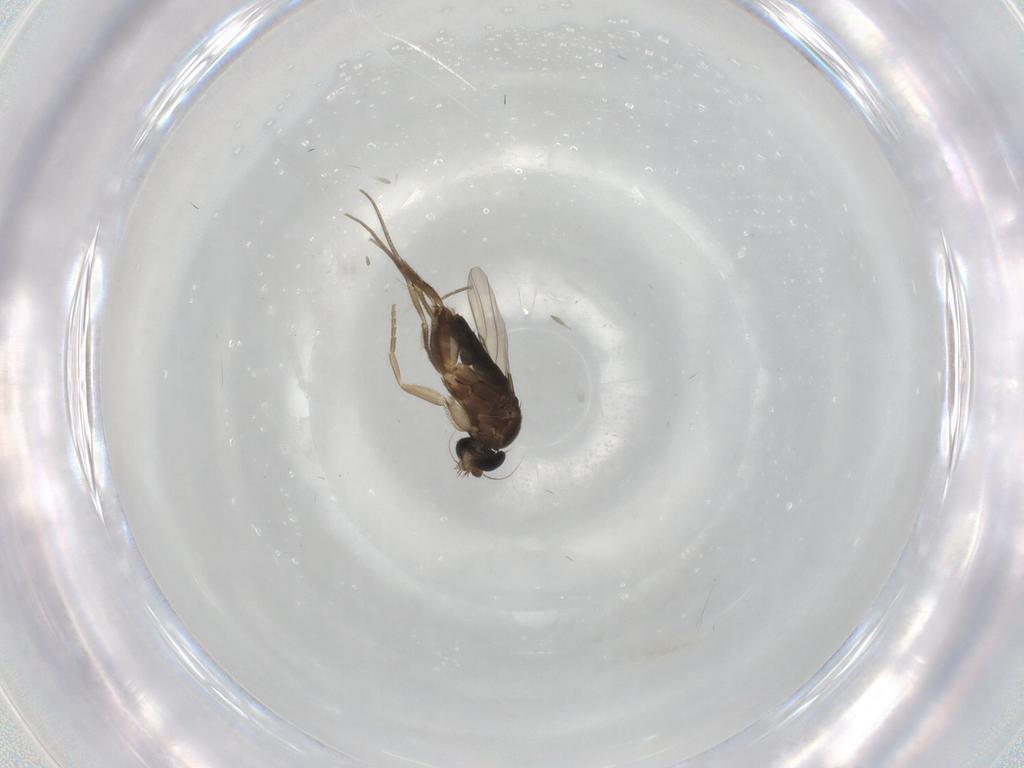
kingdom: Animalia
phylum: Arthropoda
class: Insecta
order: Diptera
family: Phoridae
